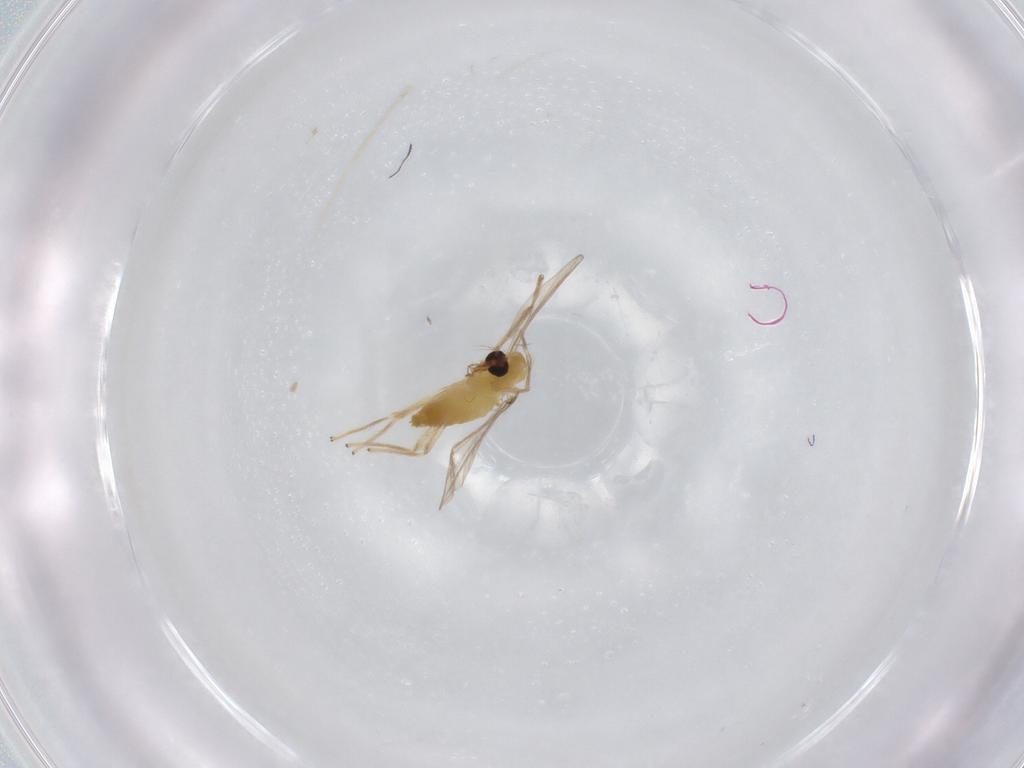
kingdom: Animalia
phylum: Arthropoda
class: Insecta
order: Diptera
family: Chironomidae
